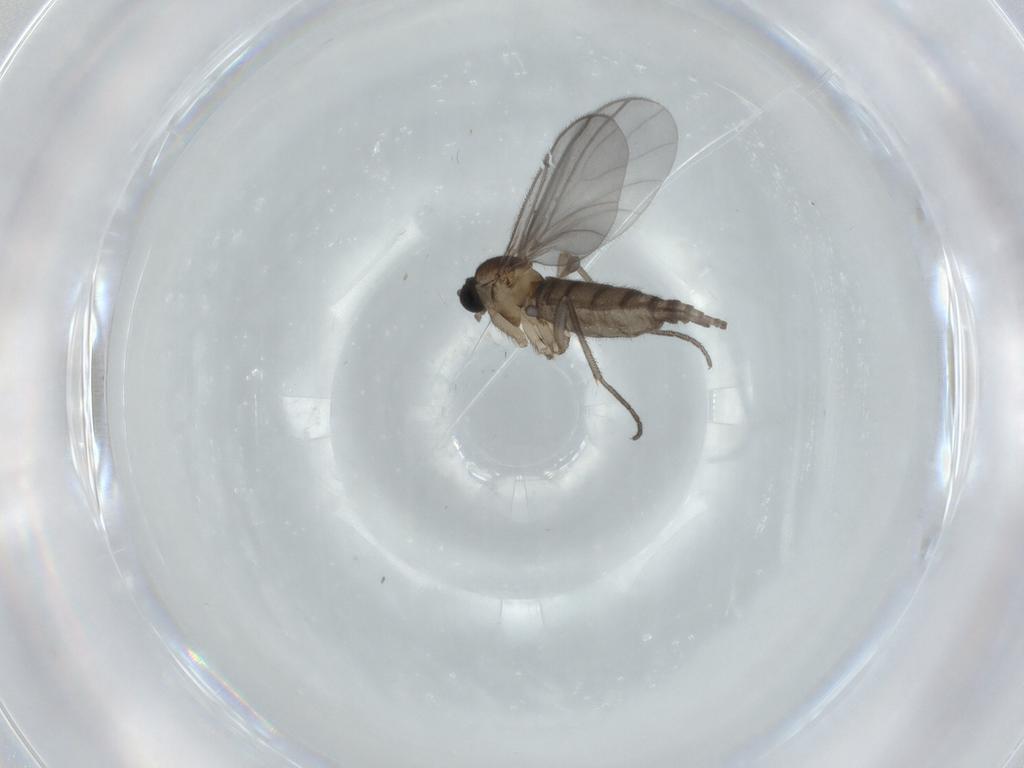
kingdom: Animalia
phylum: Arthropoda
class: Insecta
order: Diptera
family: Sciaridae
